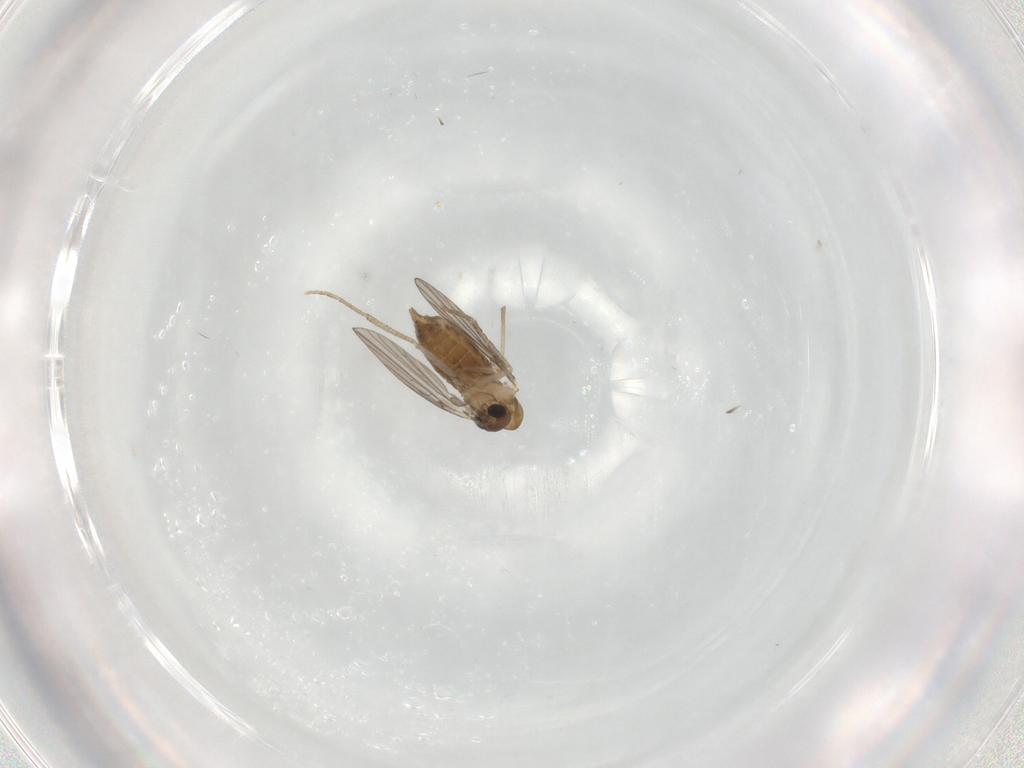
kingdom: Animalia
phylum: Arthropoda
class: Insecta
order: Diptera
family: Chironomidae
